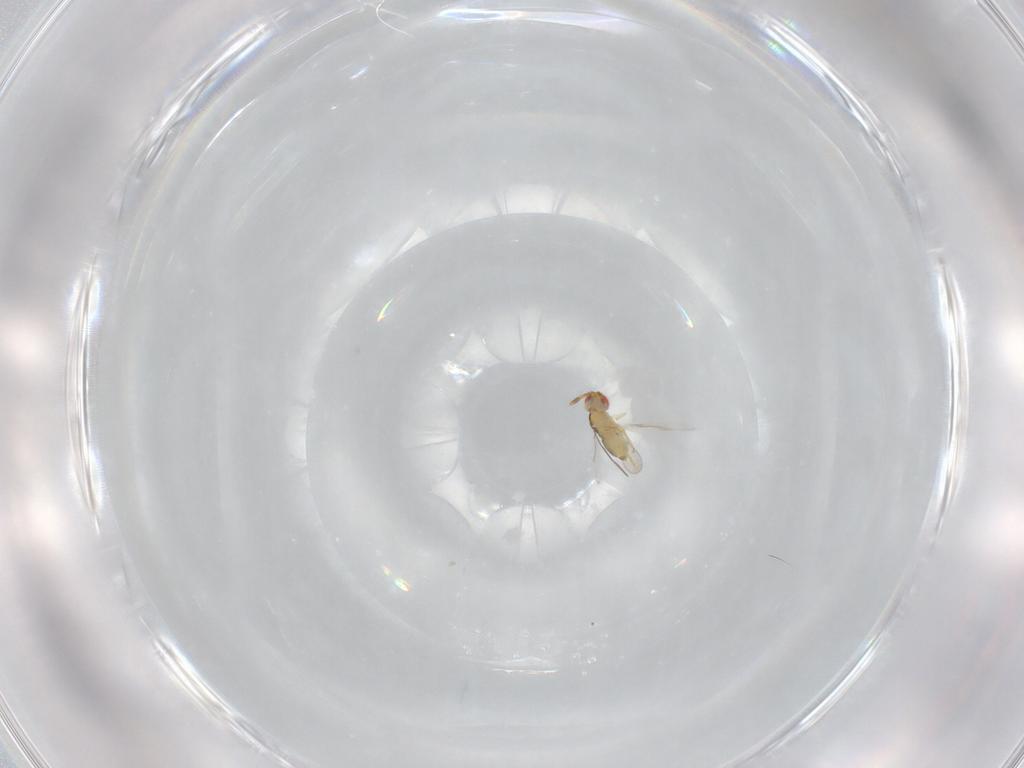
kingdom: Animalia
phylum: Arthropoda
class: Insecta
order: Hymenoptera
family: Aphelinidae
